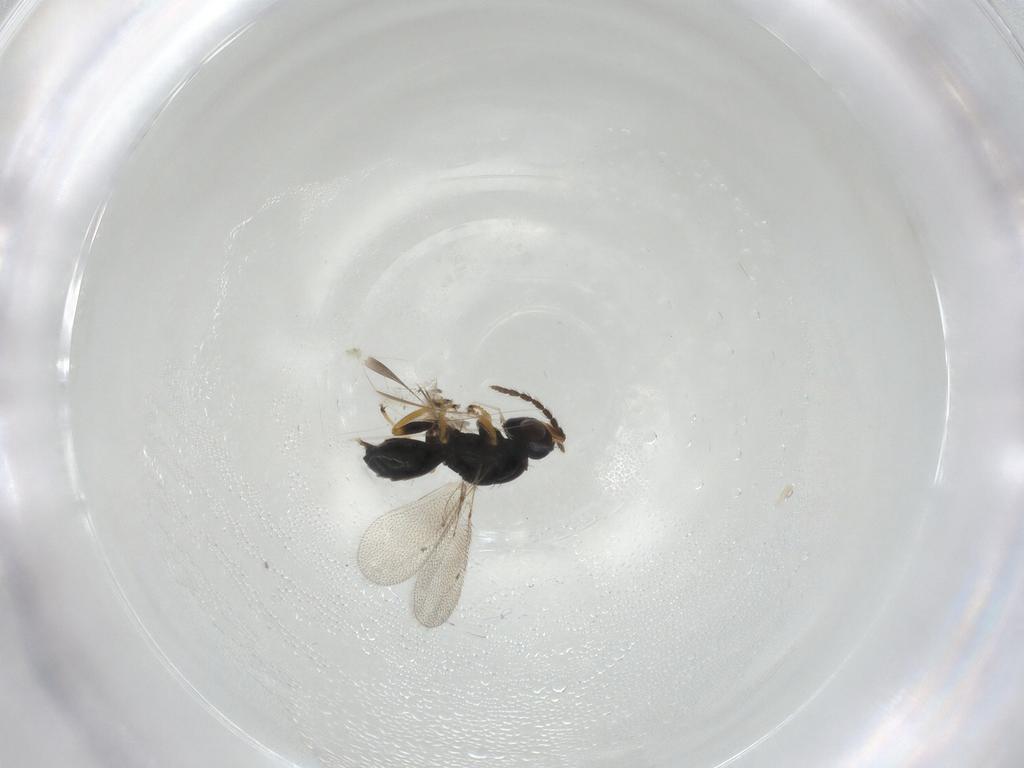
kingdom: Animalia
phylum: Arthropoda
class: Insecta
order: Hymenoptera
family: Eulophidae
